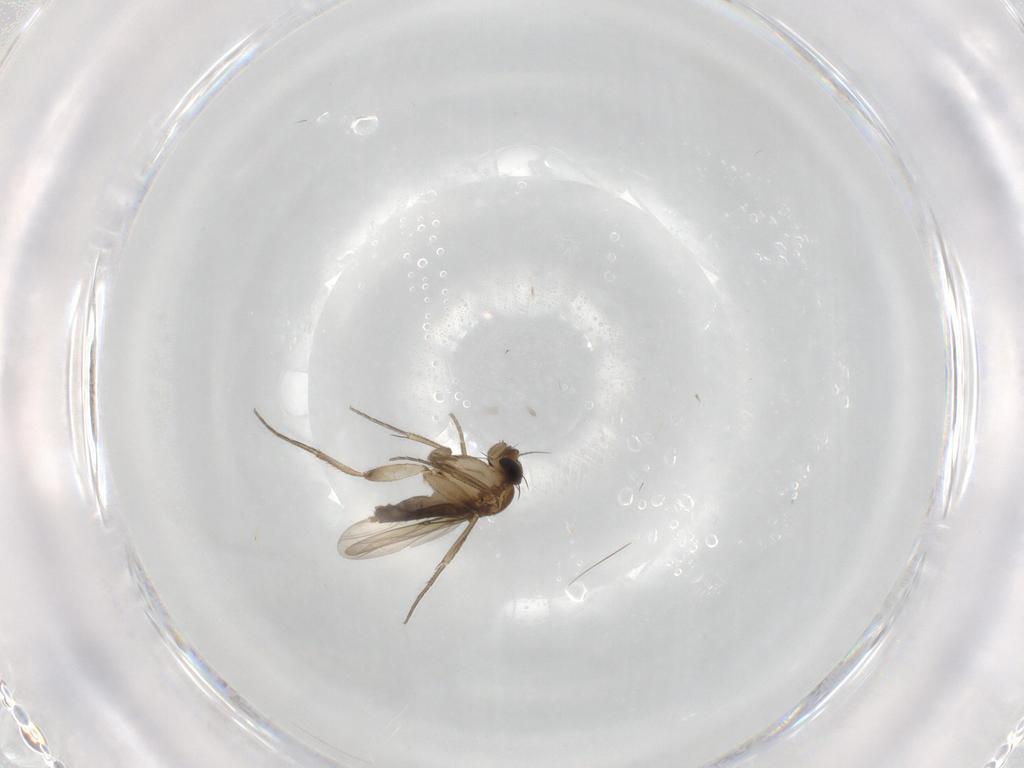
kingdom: Animalia
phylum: Arthropoda
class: Insecta
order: Diptera
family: Phoridae
